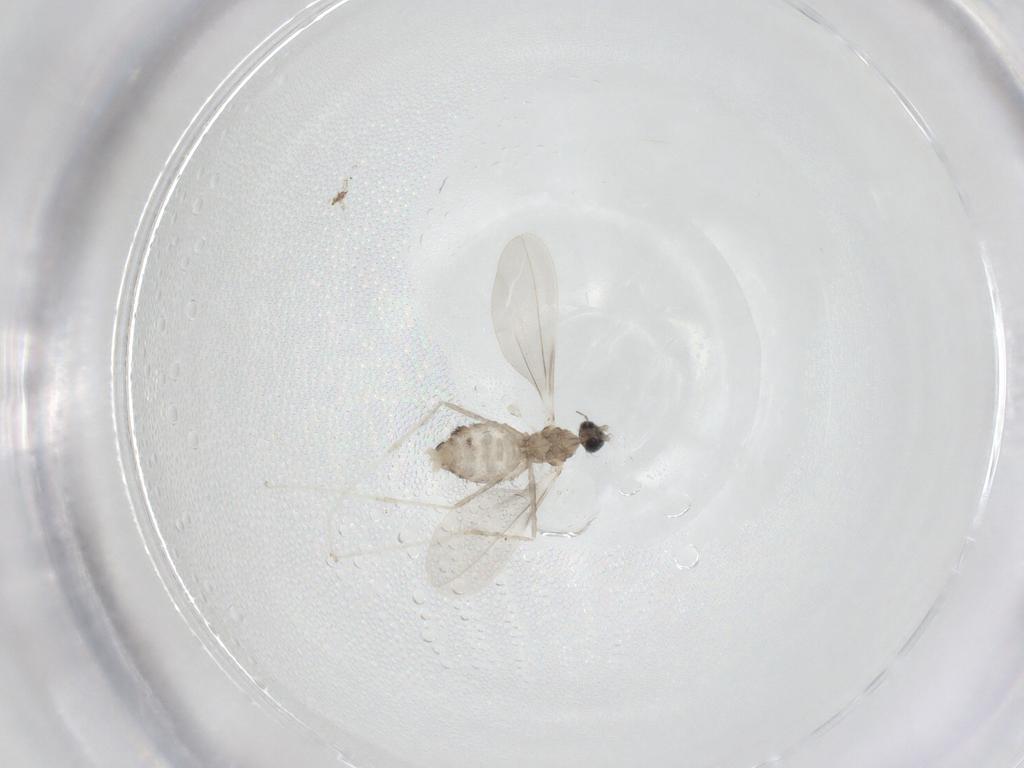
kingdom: Animalia
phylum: Arthropoda
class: Insecta
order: Diptera
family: Cecidomyiidae
